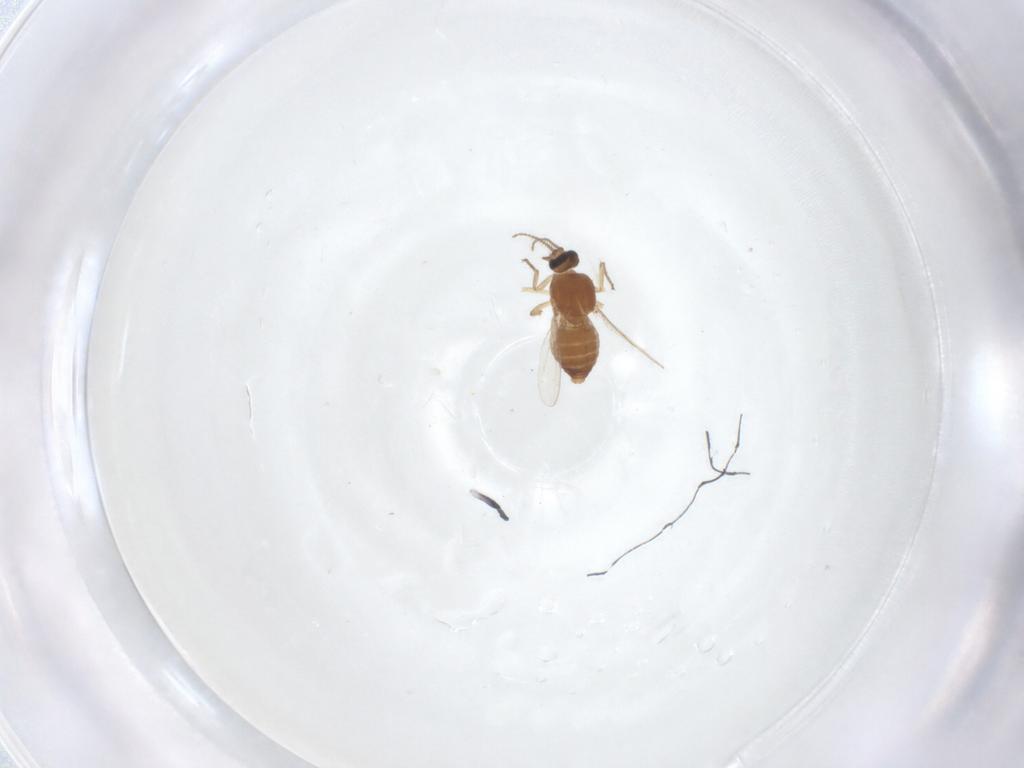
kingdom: Animalia
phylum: Arthropoda
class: Insecta
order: Diptera
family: Ceratopogonidae
